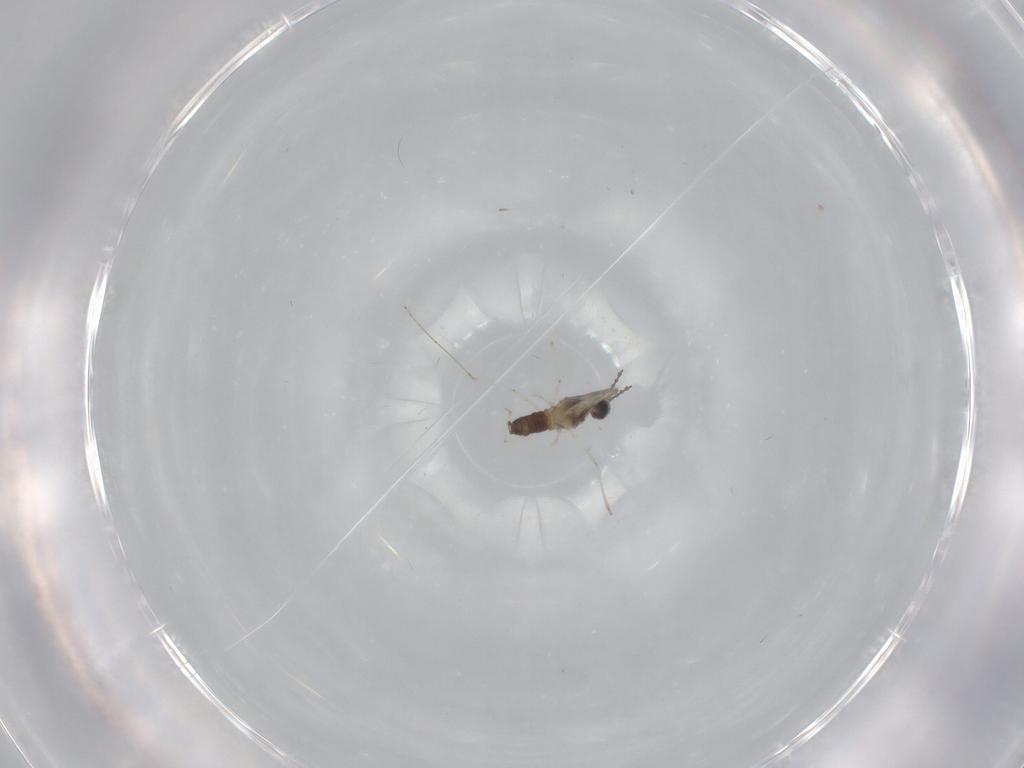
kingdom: Animalia
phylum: Arthropoda
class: Insecta
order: Diptera
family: Cecidomyiidae
